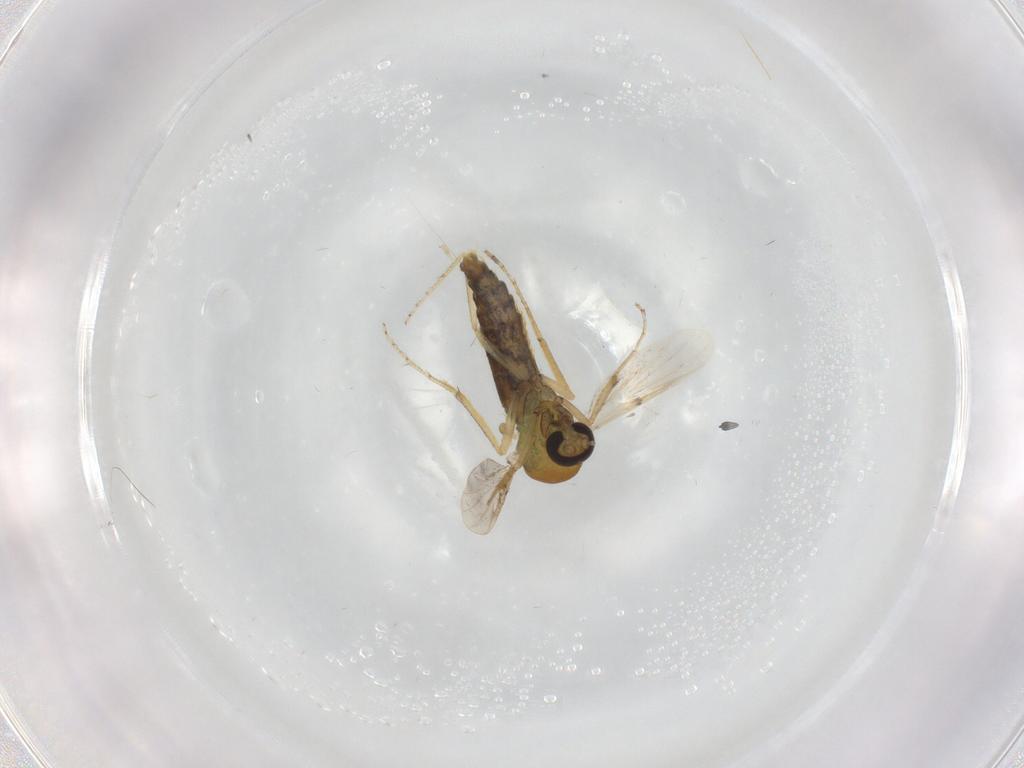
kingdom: Animalia
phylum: Arthropoda
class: Insecta
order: Diptera
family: Ceratopogonidae
